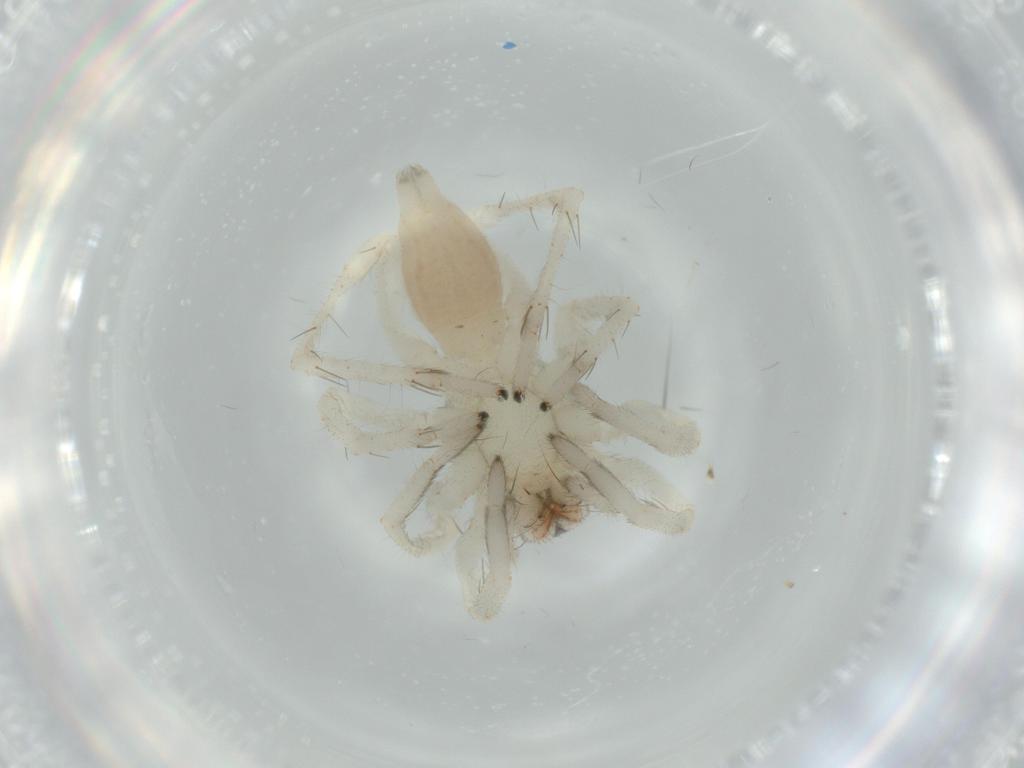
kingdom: Animalia
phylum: Arthropoda
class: Arachnida
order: Araneae
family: Linyphiidae
